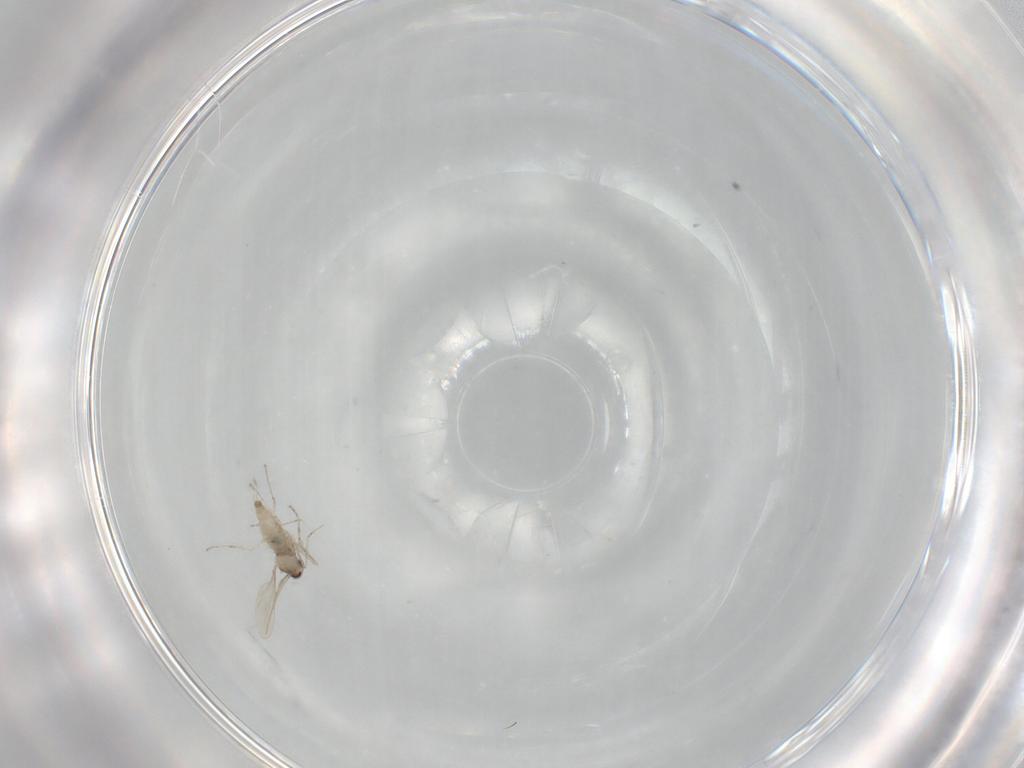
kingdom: Animalia
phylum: Arthropoda
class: Insecta
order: Diptera
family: Cecidomyiidae
